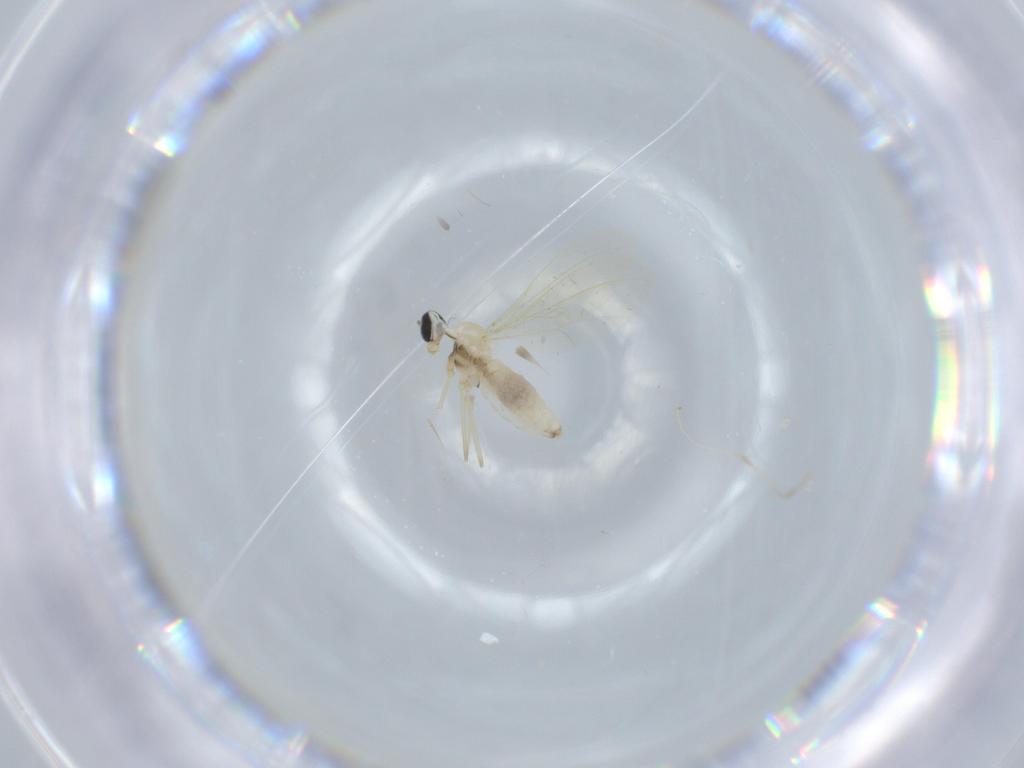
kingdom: Animalia
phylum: Arthropoda
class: Insecta
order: Diptera
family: Cecidomyiidae
